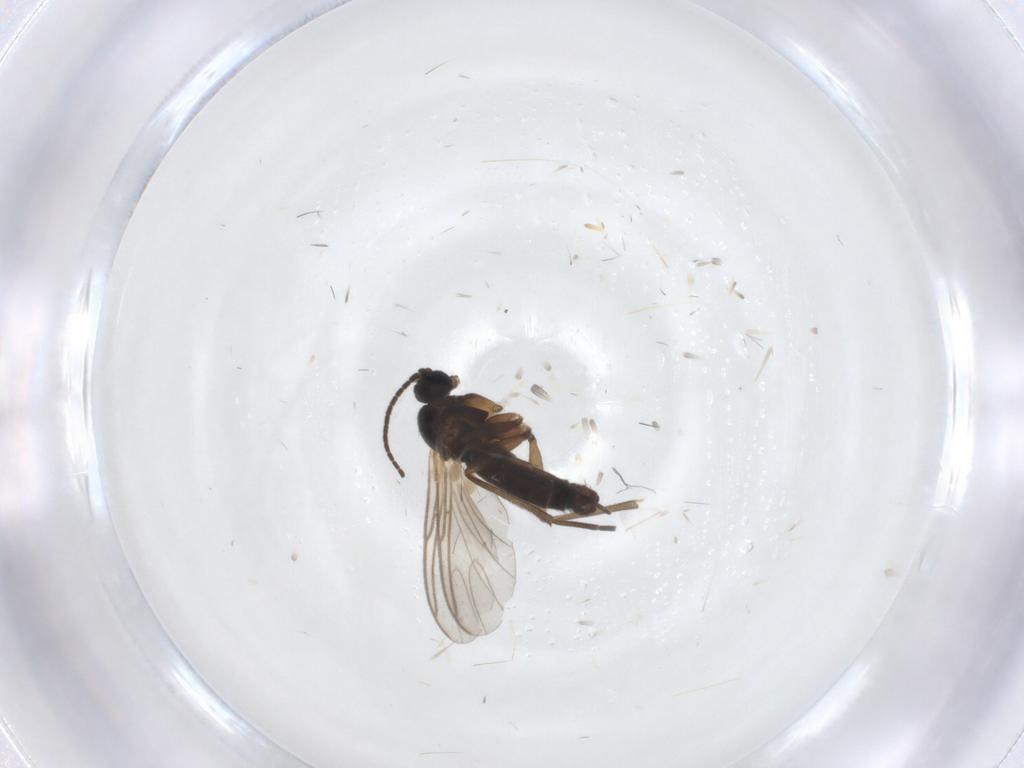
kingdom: Animalia
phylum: Arthropoda
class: Insecta
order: Diptera
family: Sciaridae
